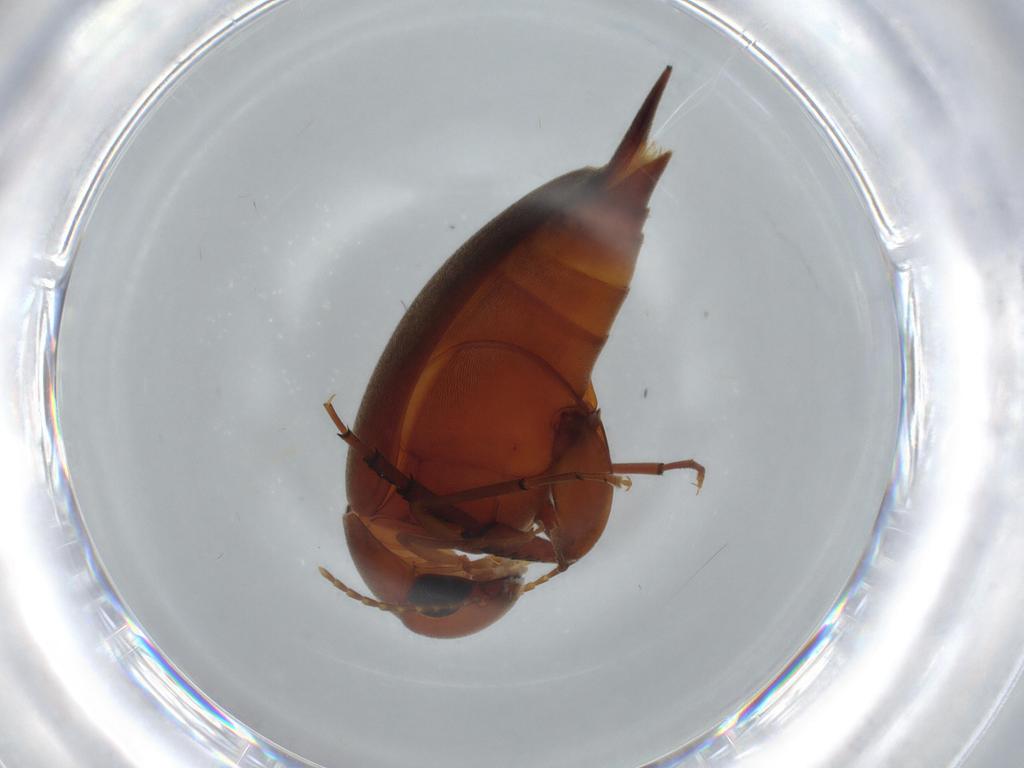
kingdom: Animalia
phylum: Arthropoda
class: Insecta
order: Coleoptera
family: Mordellidae
